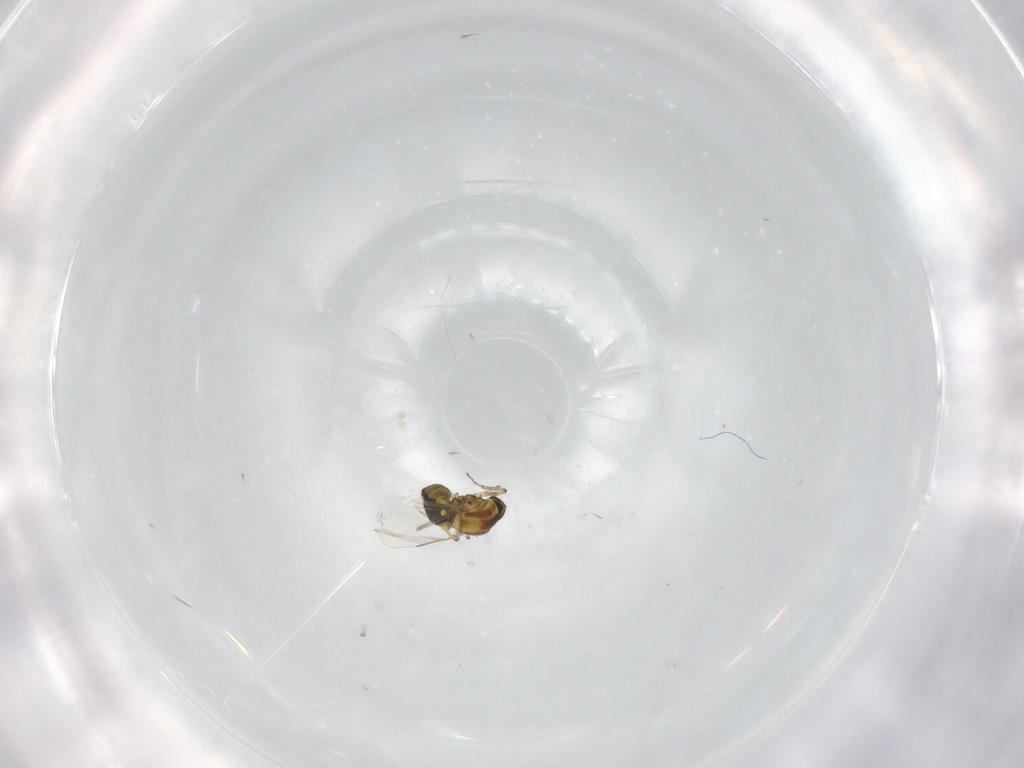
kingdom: Animalia
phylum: Arthropoda
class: Insecta
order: Diptera
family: Ceratopogonidae
